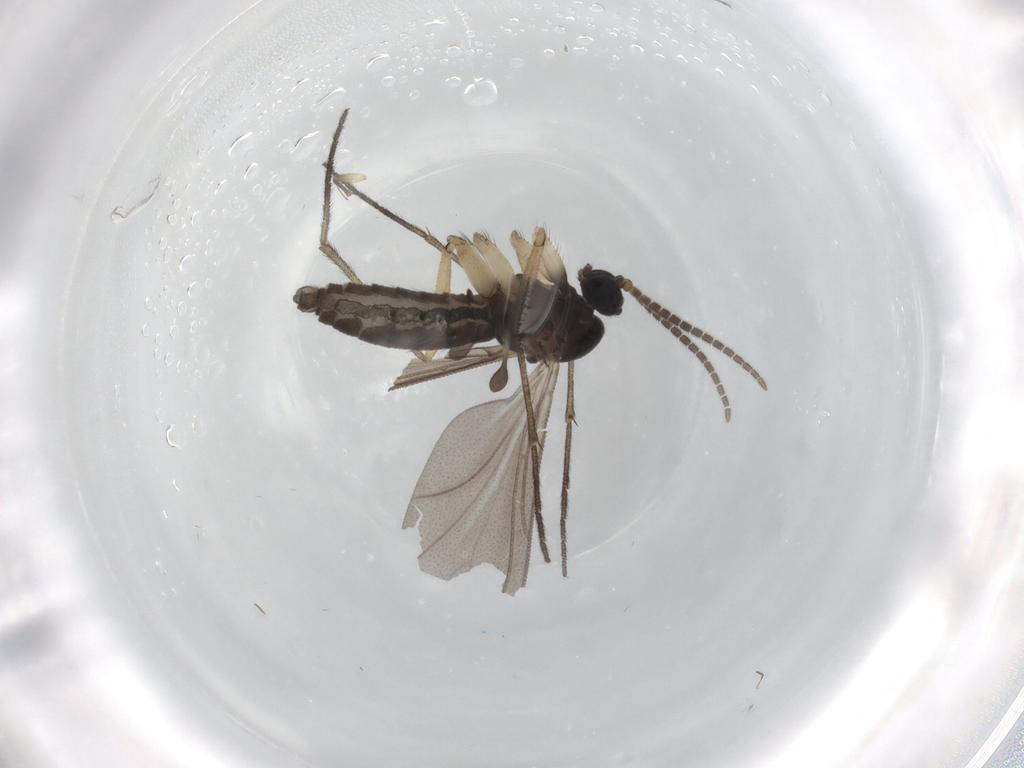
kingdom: Animalia
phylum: Arthropoda
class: Insecta
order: Diptera
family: Sciaridae
